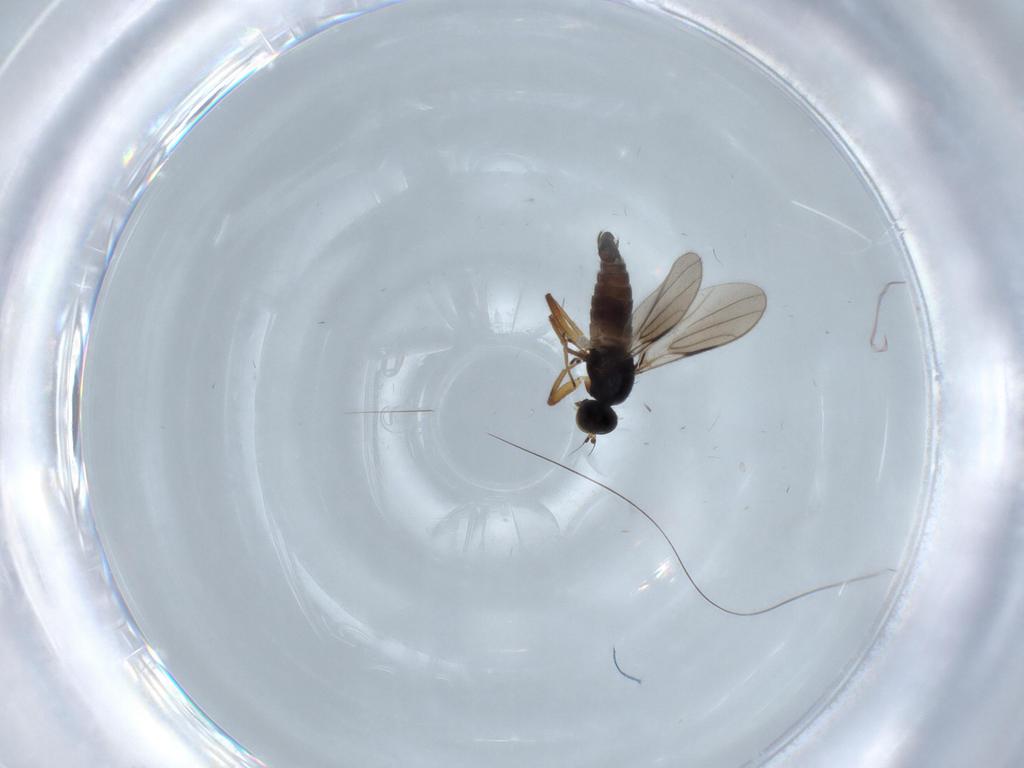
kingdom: Animalia
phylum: Arthropoda
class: Insecta
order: Diptera
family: Hybotidae
